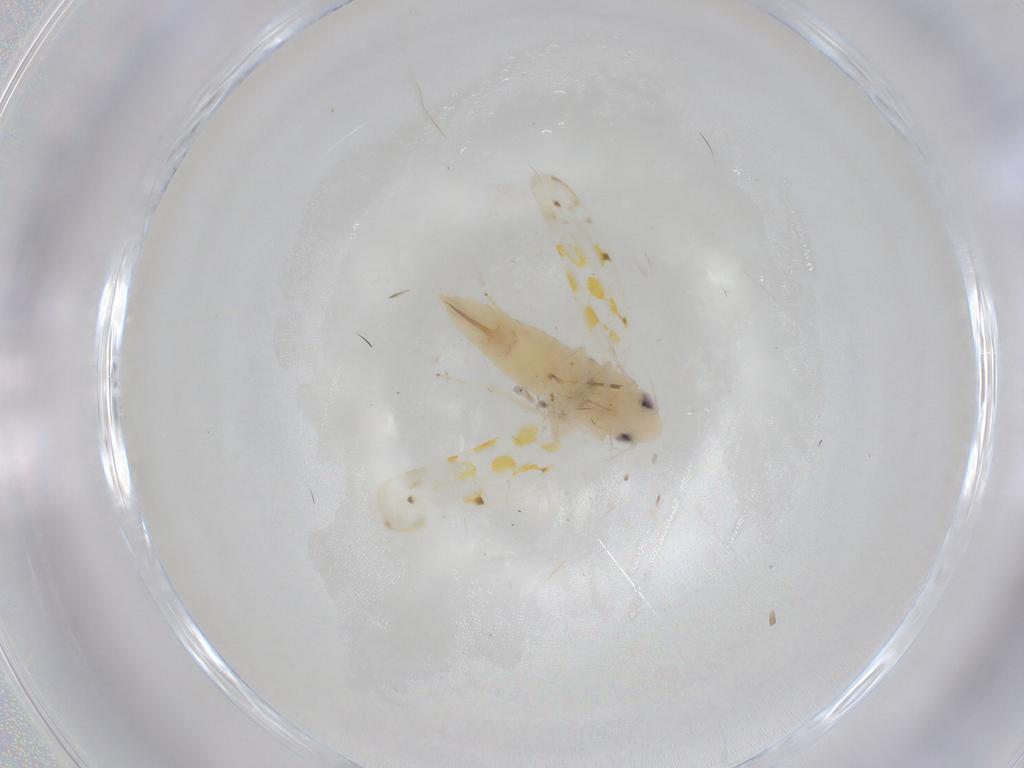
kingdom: Animalia
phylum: Arthropoda
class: Insecta
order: Hemiptera
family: Cicadellidae
